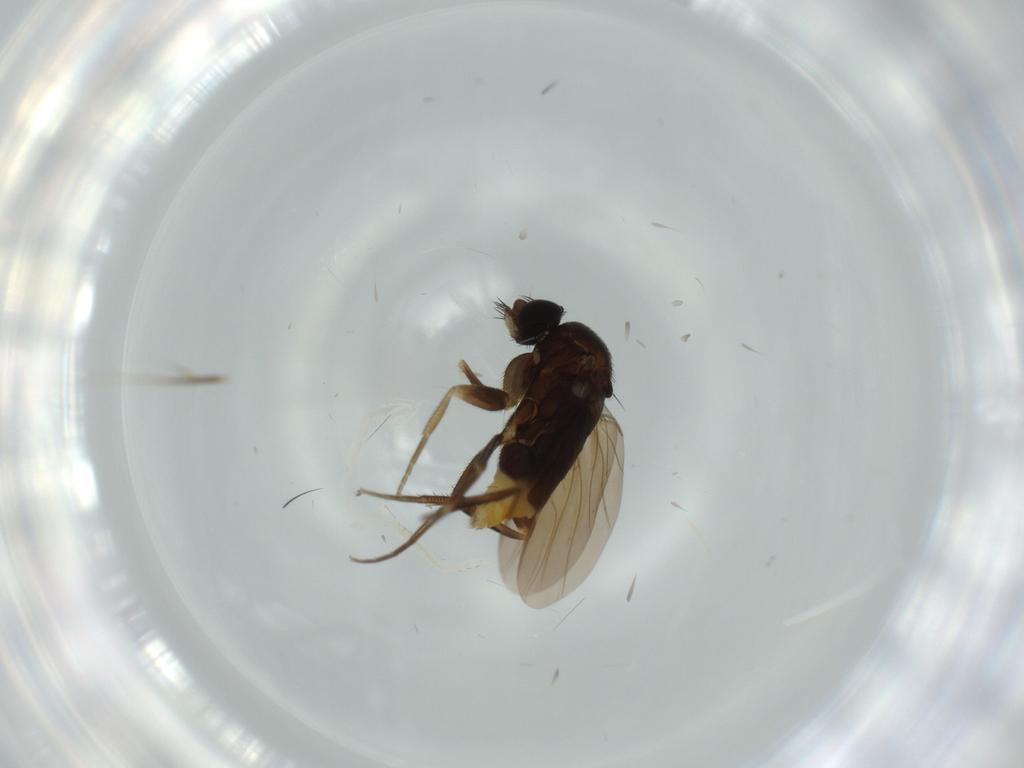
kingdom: Animalia
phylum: Arthropoda
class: Insecta
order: Diptera
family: Phoridae
